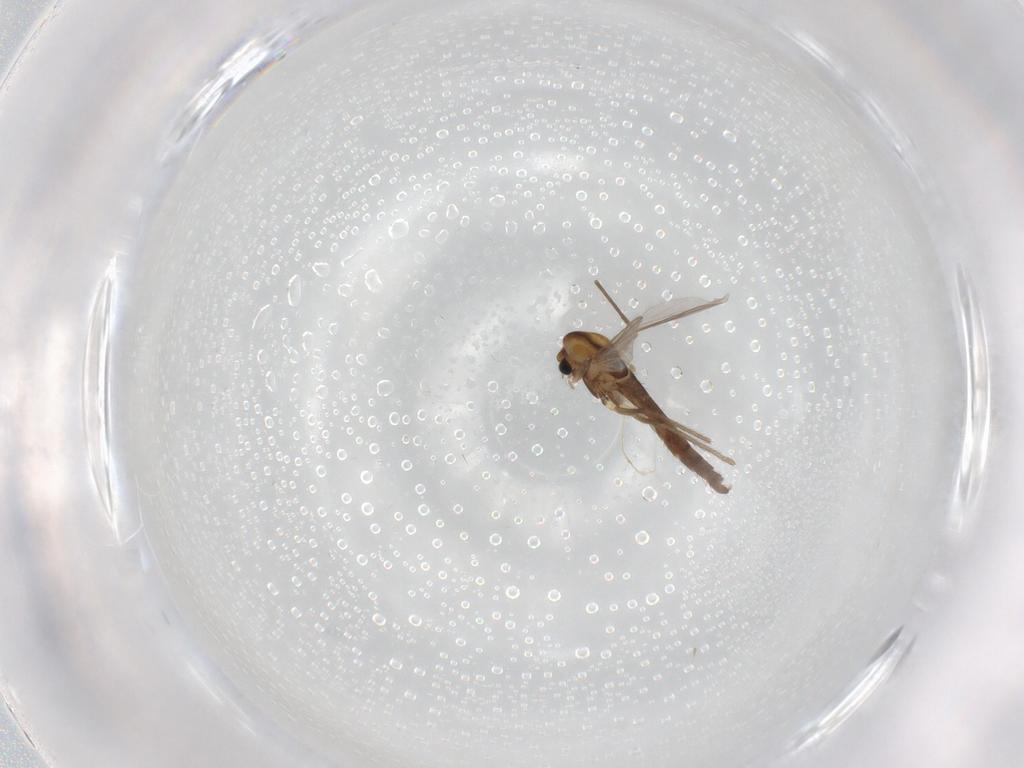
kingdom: Animalia
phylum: Arthropoda
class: Insecta
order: Diptera
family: Chironomidae
